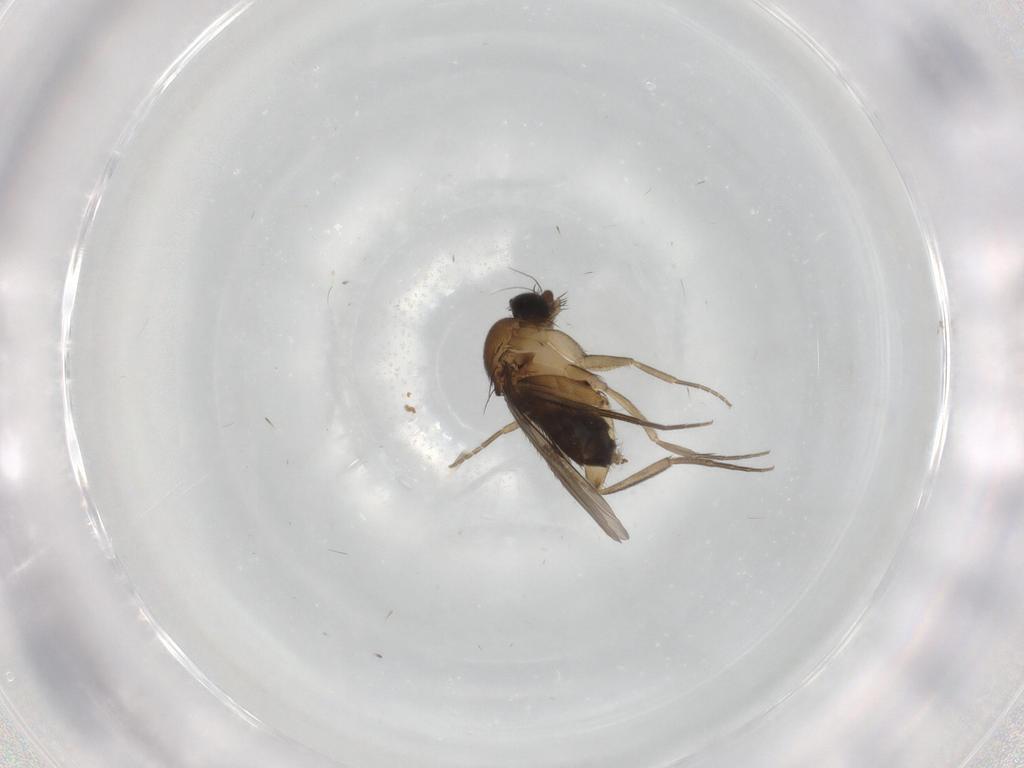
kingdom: Animalia
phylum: Arthropoda
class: Insecta
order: Diptera
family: Phoridae
